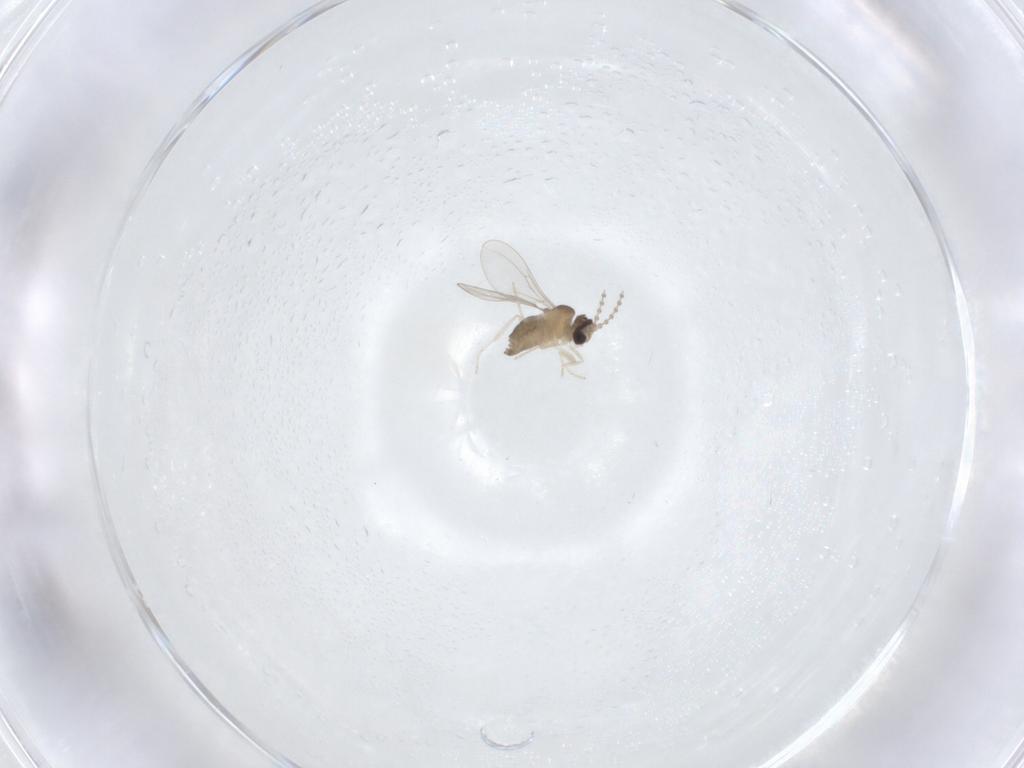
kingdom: Animalia
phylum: Arthropoda
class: Insecta
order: Diptera
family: Cecidomyiidae
